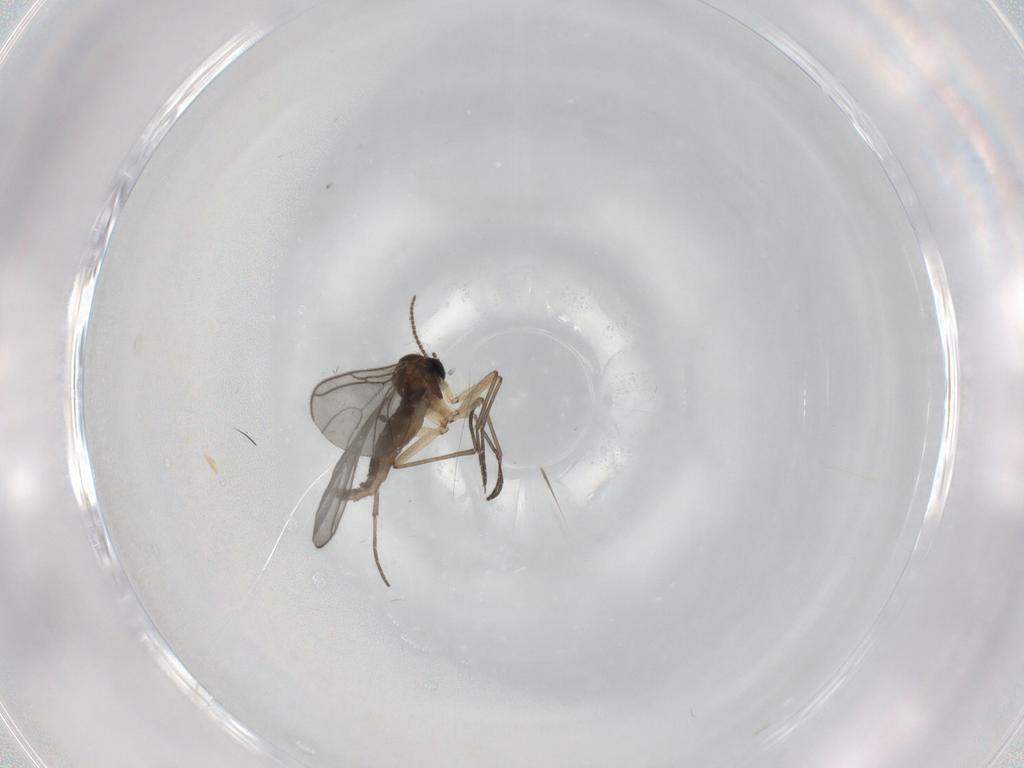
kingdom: Animalia
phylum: Arthropoda
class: Insecta
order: Diptera
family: Sciaridae
